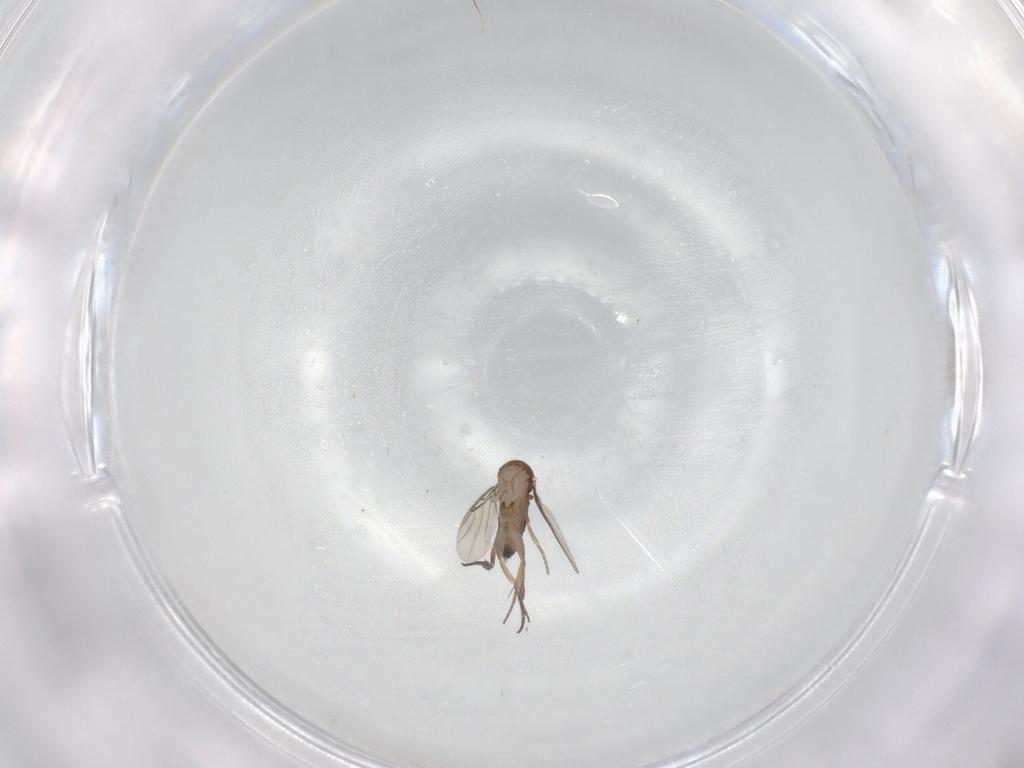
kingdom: Animalia
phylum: Arthropoda
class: Insecta
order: Diptera
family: Phoridae
